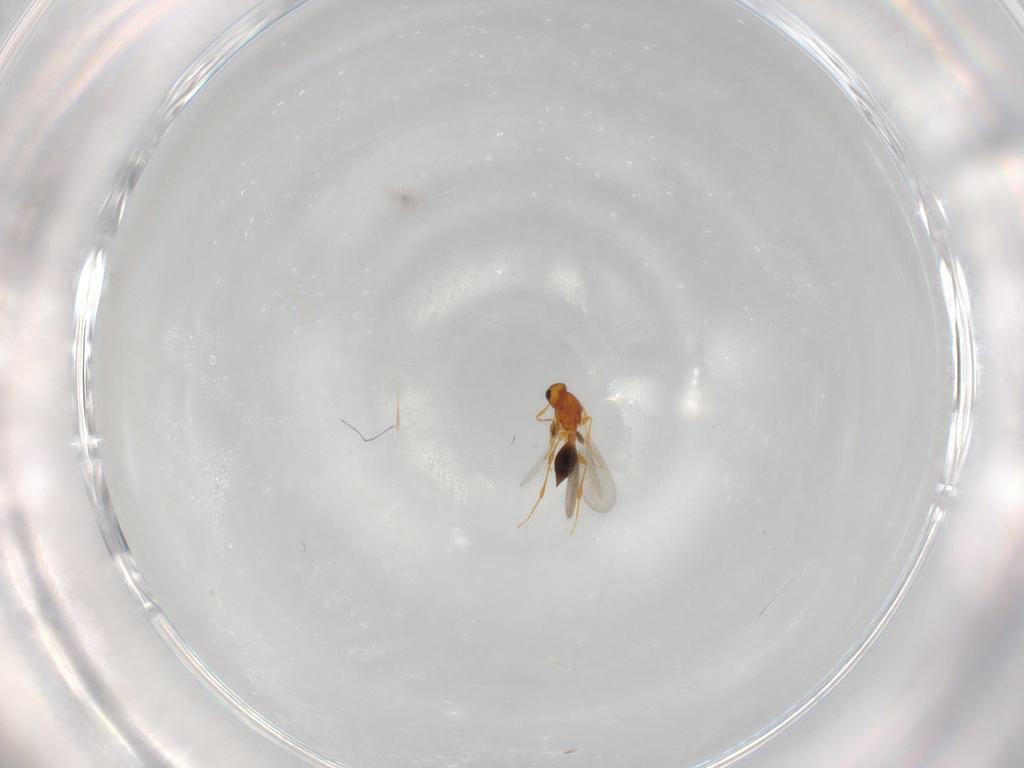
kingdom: Animalia
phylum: Arthropoda
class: Insecta
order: Hymenoptera
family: Platygastridae
